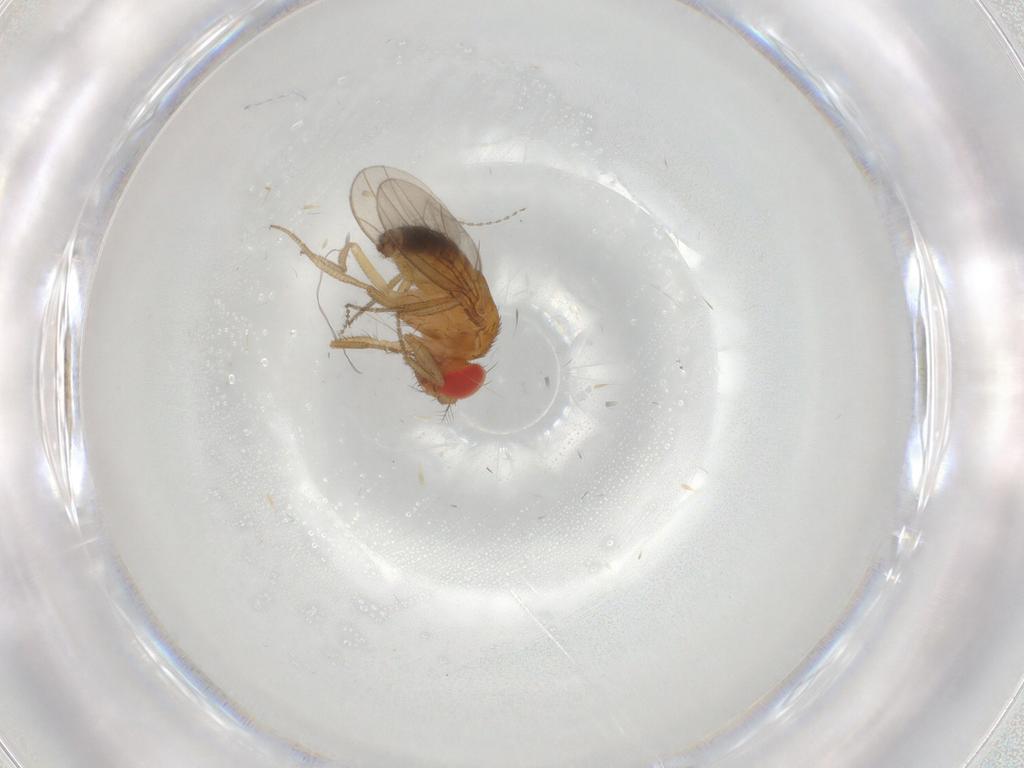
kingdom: Animalia
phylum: Arthropoda
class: Insecta
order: Diptera
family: Drosophilidae
